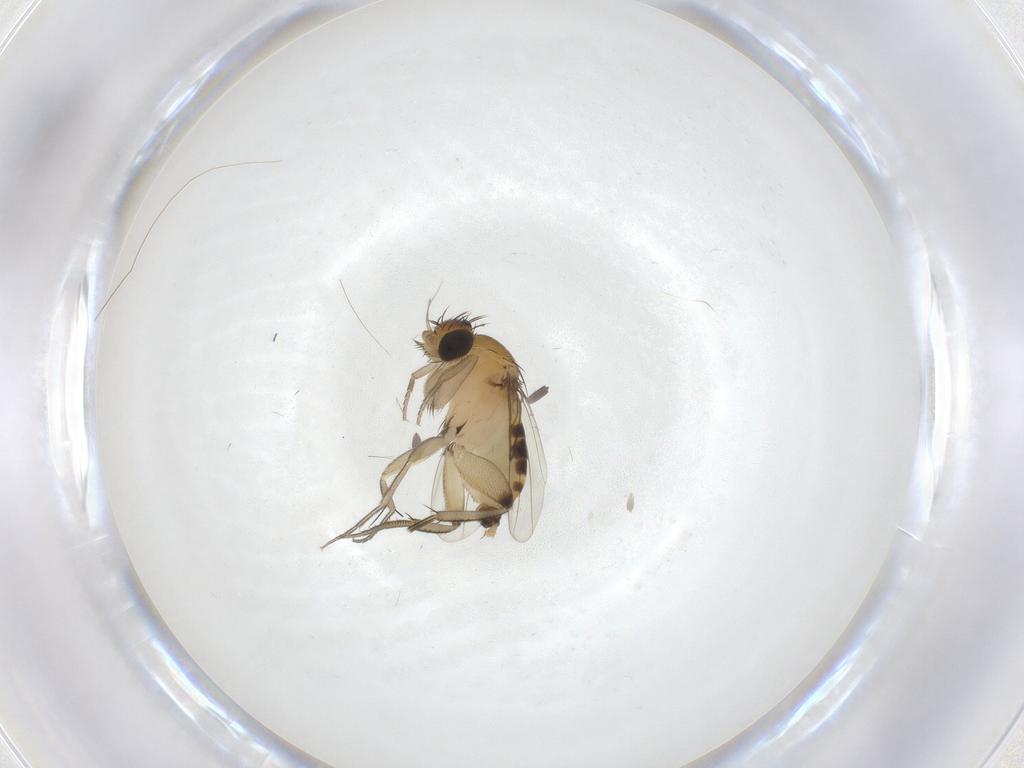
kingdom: Animalia
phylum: Arthropoda
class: Insecta
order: Diptera
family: Phoridae
